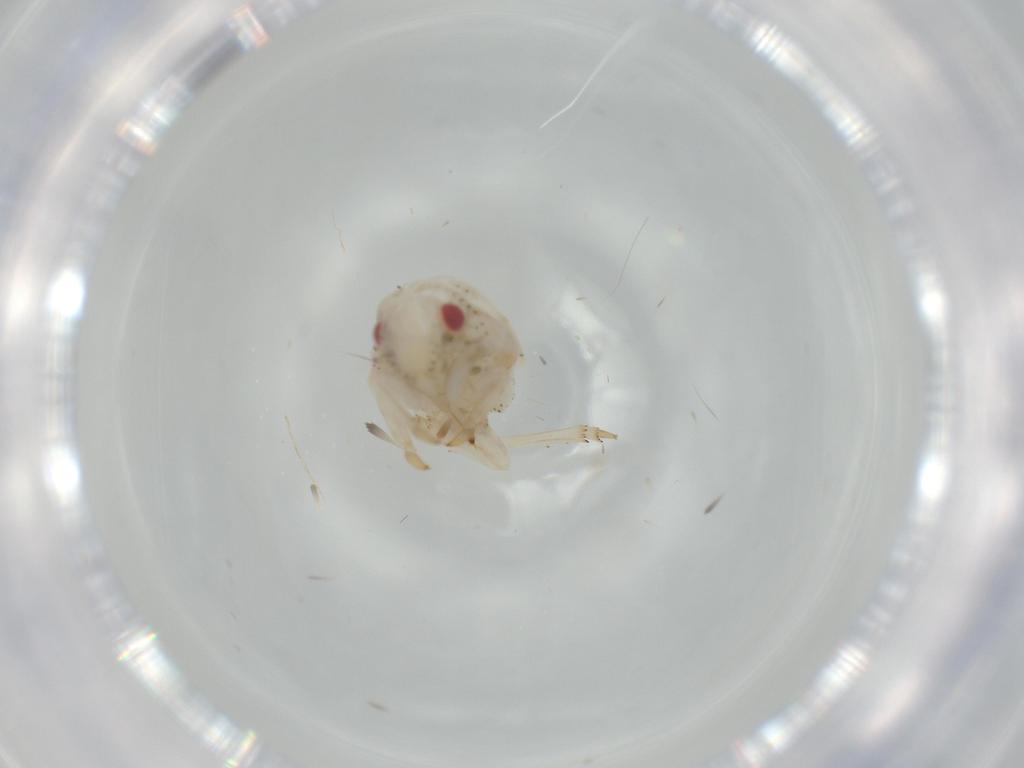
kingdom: Animalia
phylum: Arthropoda
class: Insecta
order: Hemiptera
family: Acanaloniidae
